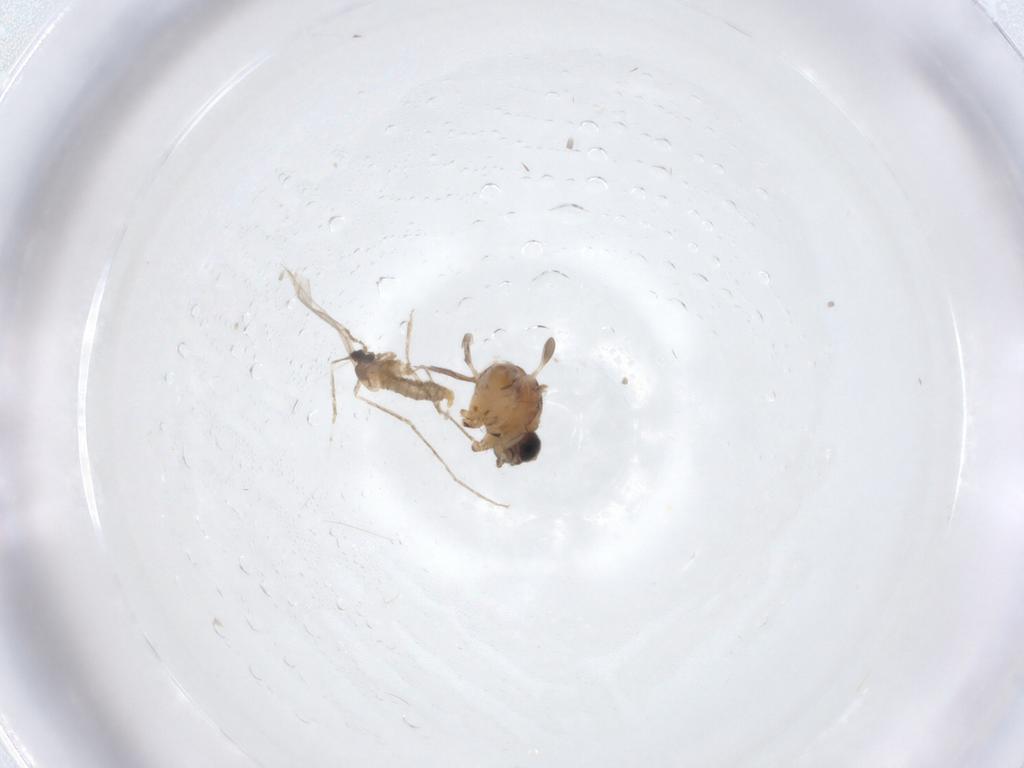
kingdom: Animalia
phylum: Arthropoda
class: Insecta
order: Diptera
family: Cecidomyiidae
